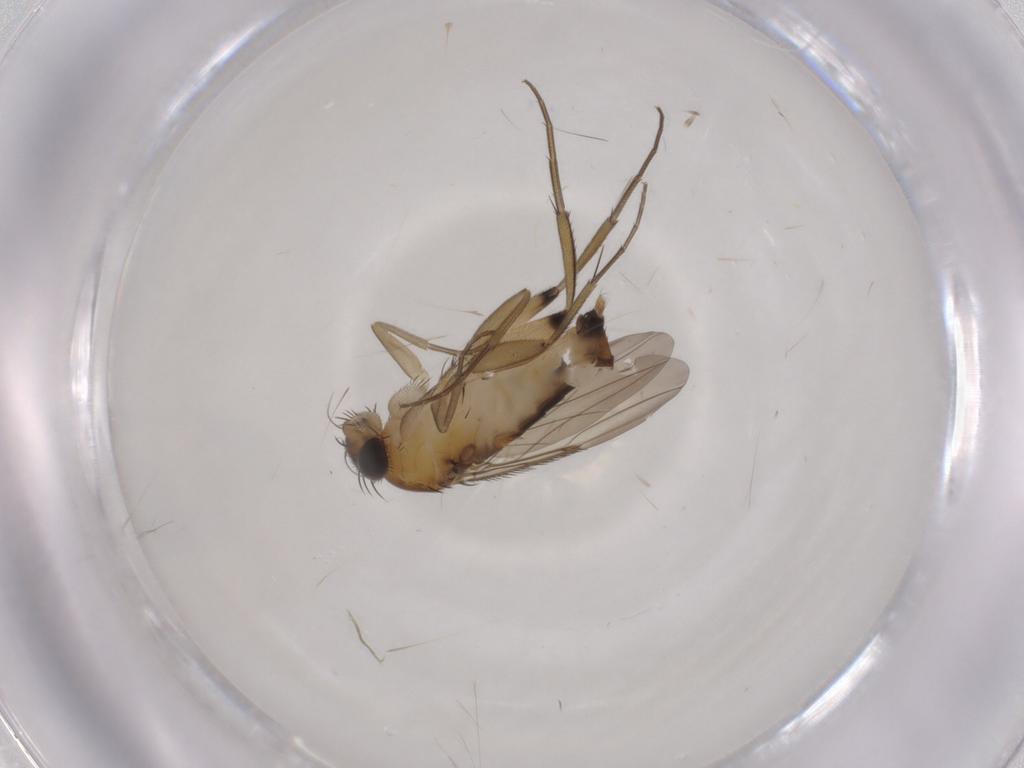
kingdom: Animalia
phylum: Arthropoda
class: Insecta
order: Diptera
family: Phoridae
